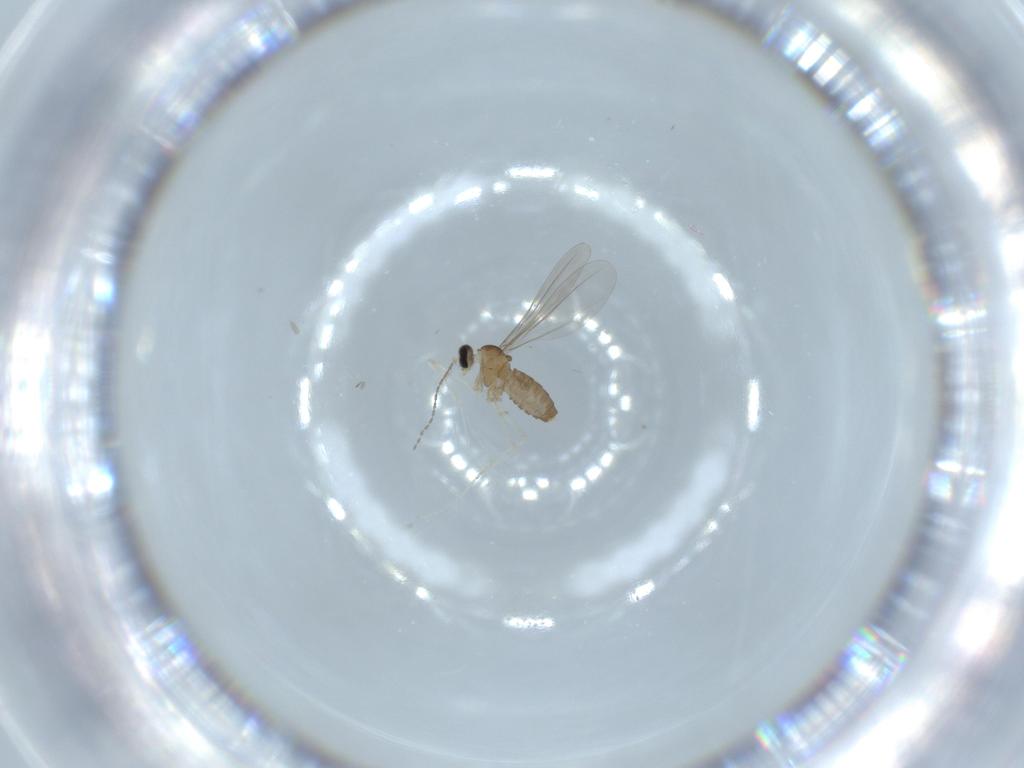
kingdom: Animalia
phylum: Arthropoda
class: Insecta
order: Diptera
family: Cecidomyiidae
